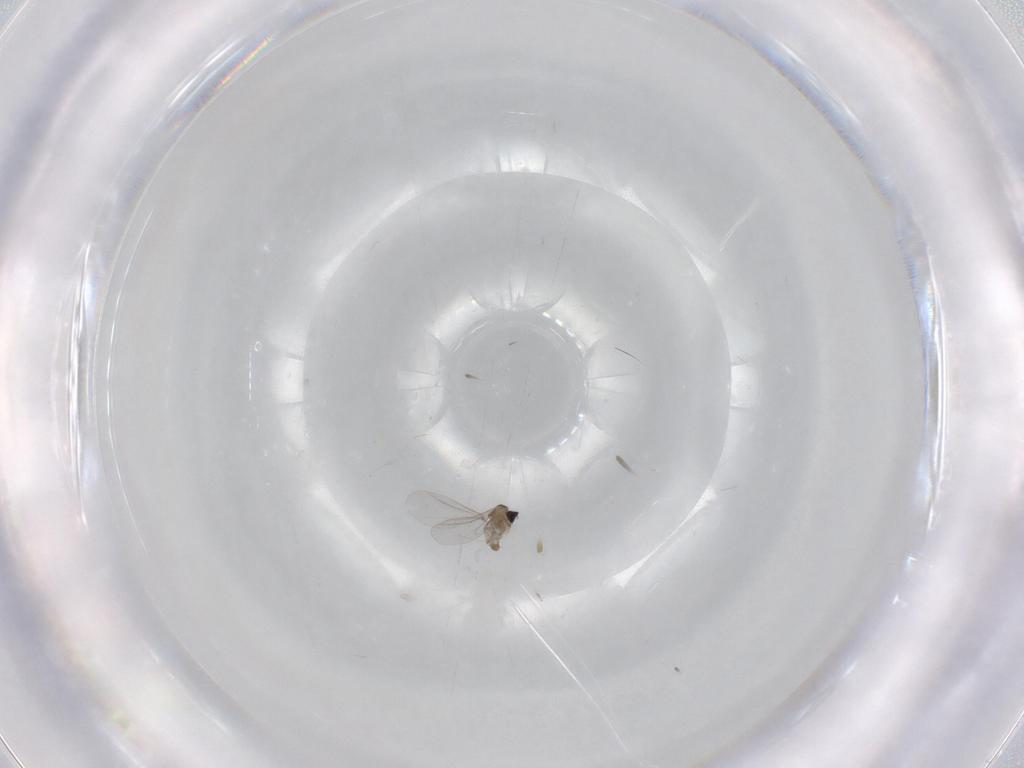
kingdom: Animalia
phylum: Arthropoda
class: Insecta
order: Diptera
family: Cecidomyiidae
